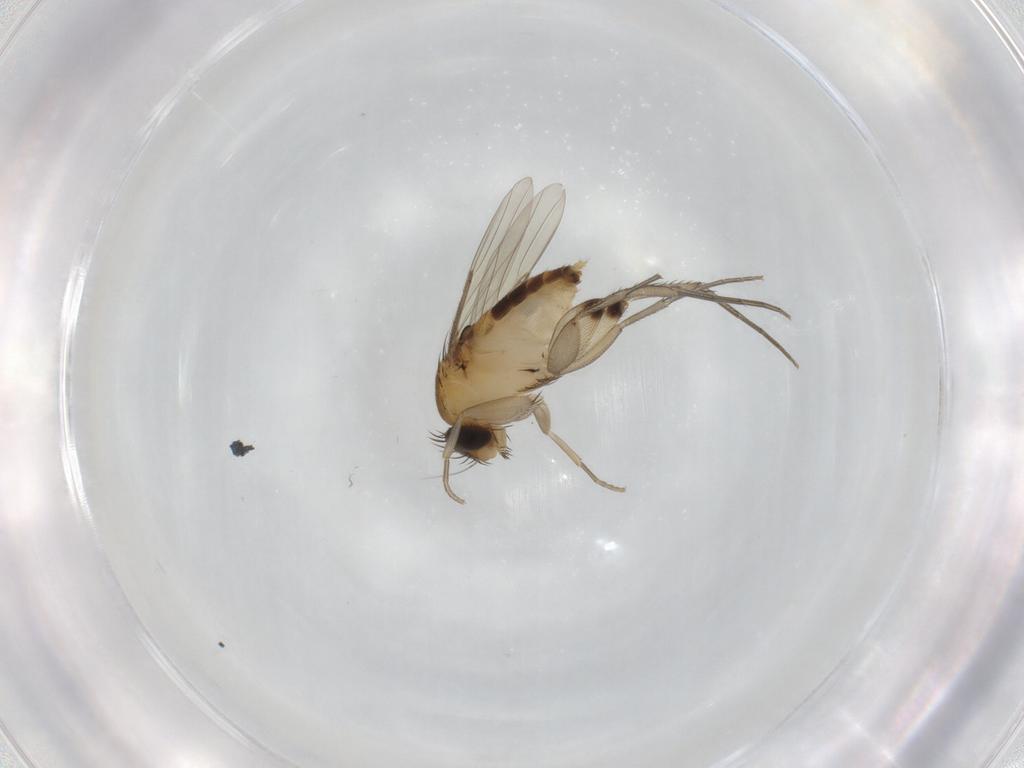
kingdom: Animalia
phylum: Arthropoda
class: Insecta
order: Diptera
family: Phoridae
